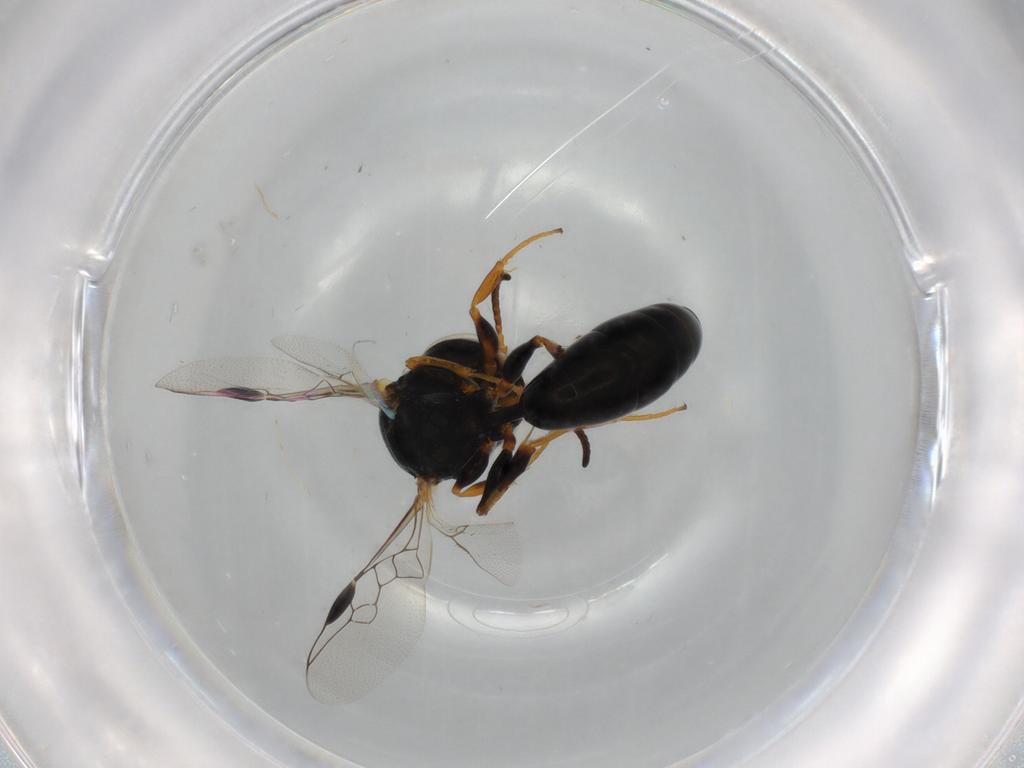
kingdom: Animalia
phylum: Arthropoda
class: Insecta
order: Hymenoptera
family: Pemphredonidae
